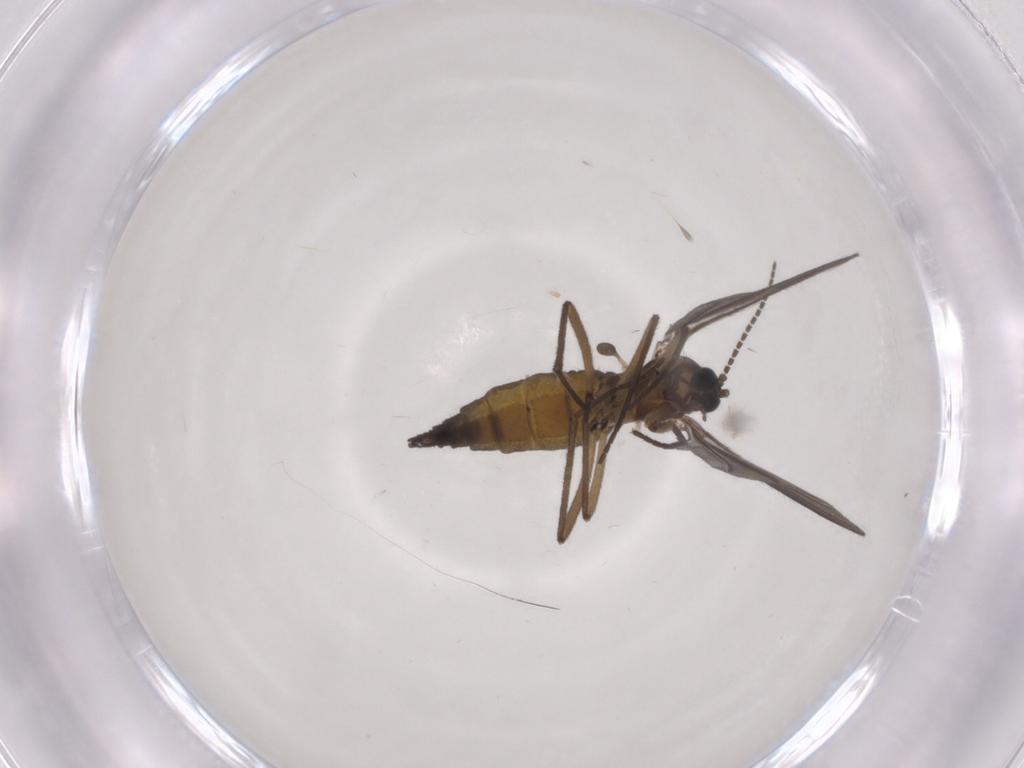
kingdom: Animalia
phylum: Arthropoda
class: Insecta
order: Diptera
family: Sciaridae
